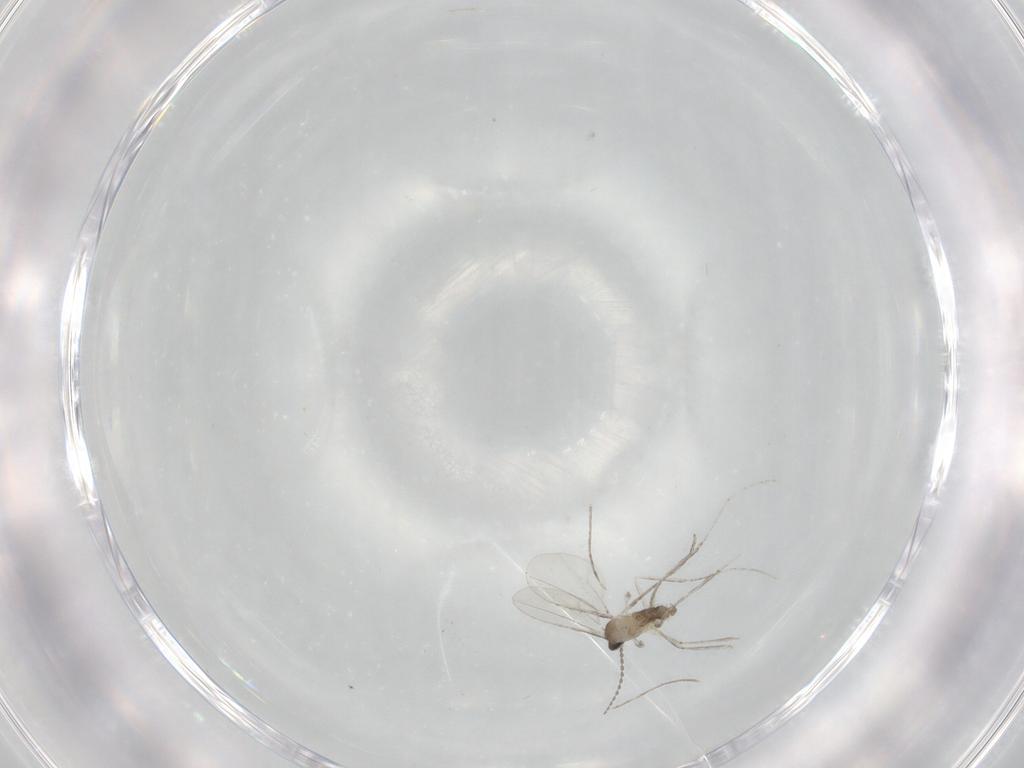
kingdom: Animalia
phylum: Arthropoda
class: Insecta
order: Diptera
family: Cecidomyiidae
